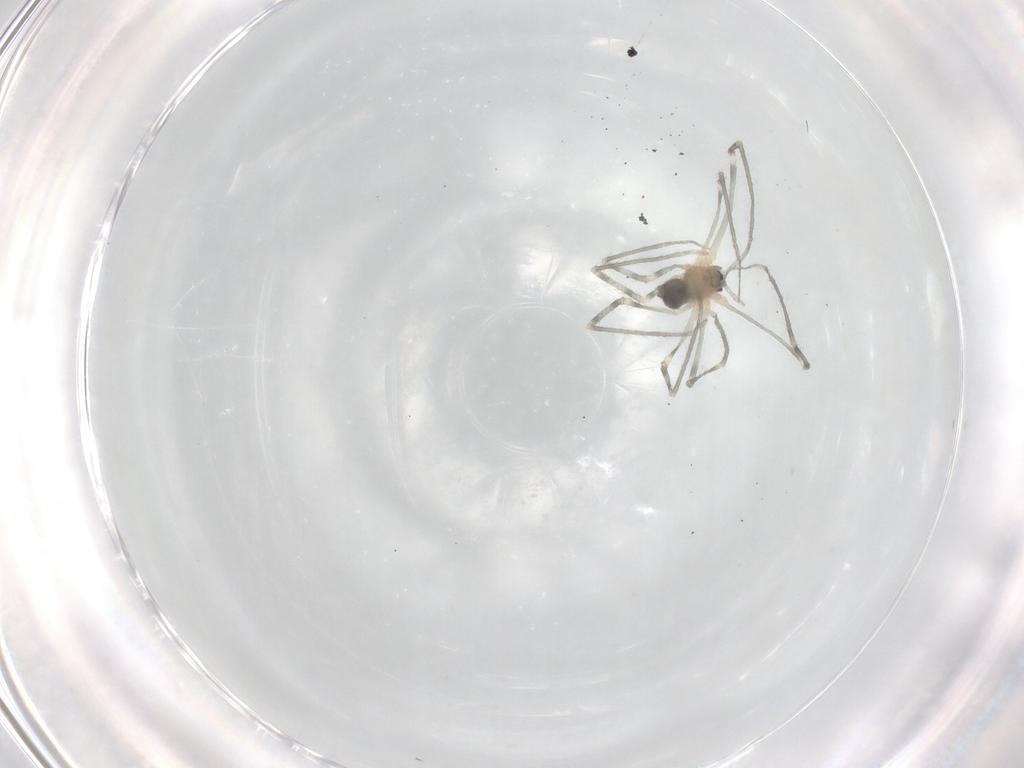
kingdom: Animalia
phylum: Arthropoda
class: Arachnida
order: Araneae
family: Pholcidae
